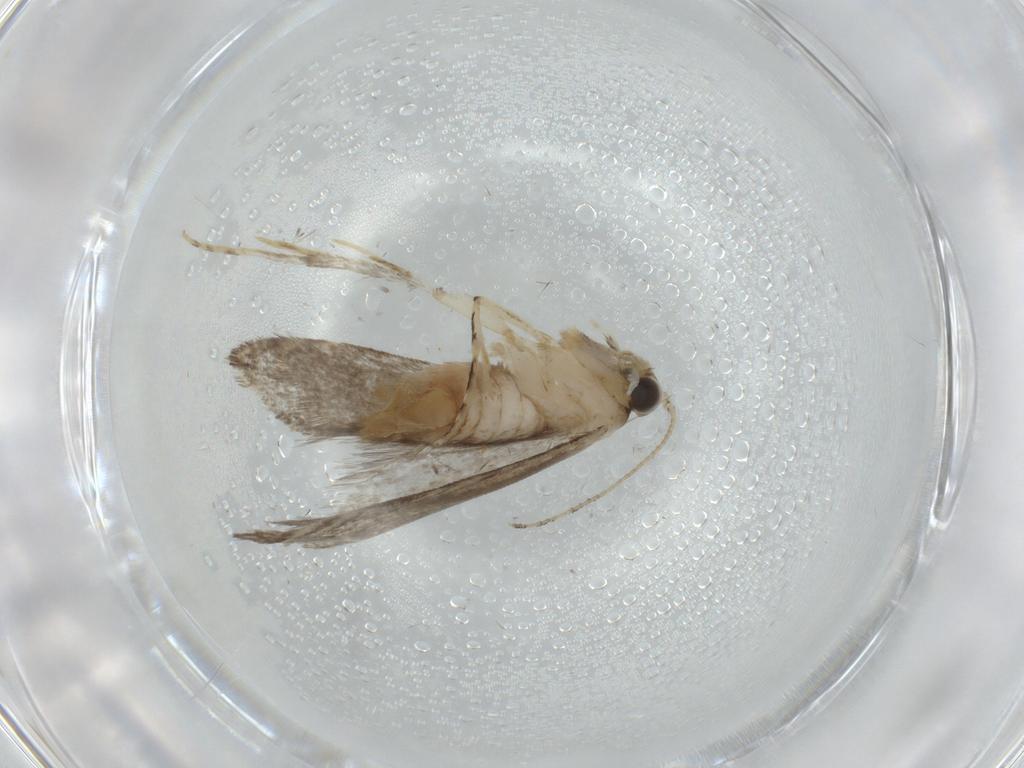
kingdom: Animalia
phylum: Arthropoda
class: Insecta
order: Lepidoptera
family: Tineidae
